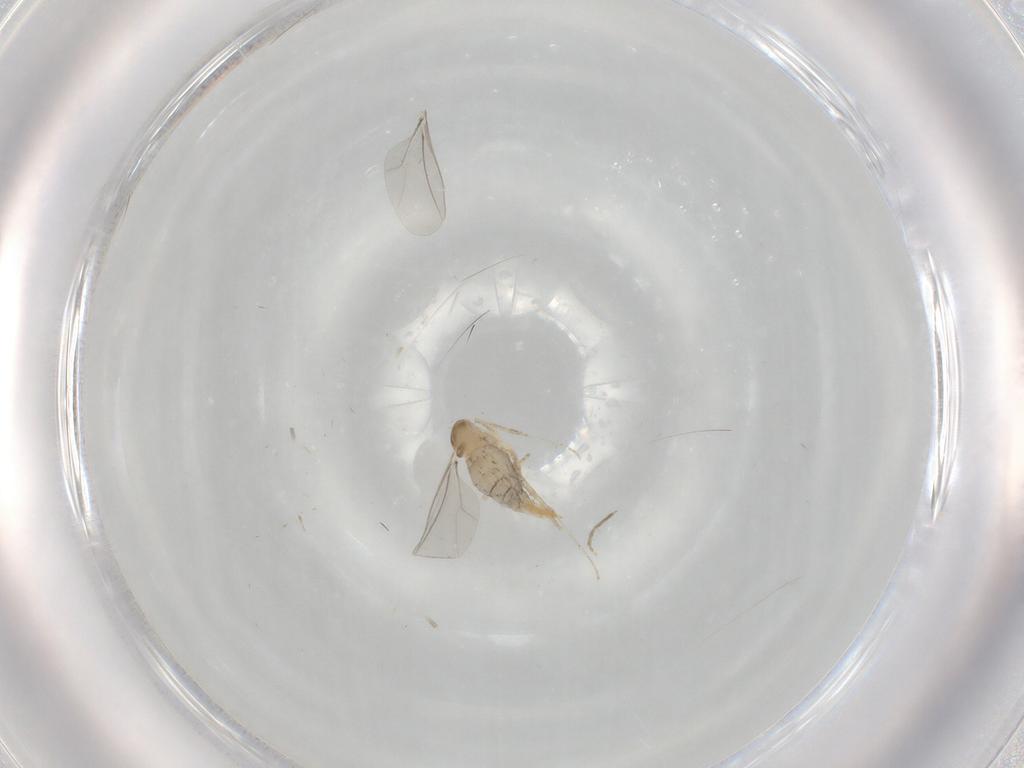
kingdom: Animalia
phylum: Arthropoda
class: Insecta
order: Diptera
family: Cecidomyiidae
